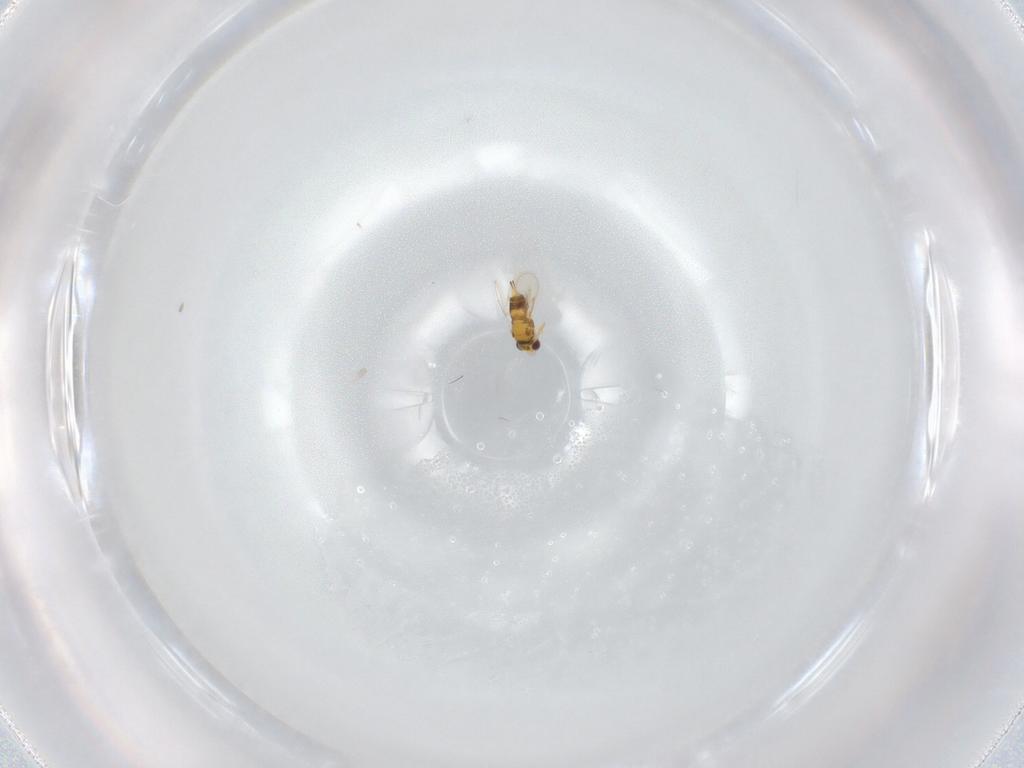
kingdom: Animalia
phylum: Arthropoda
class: Insecta
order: Hymenoptera
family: Aphelinidae
